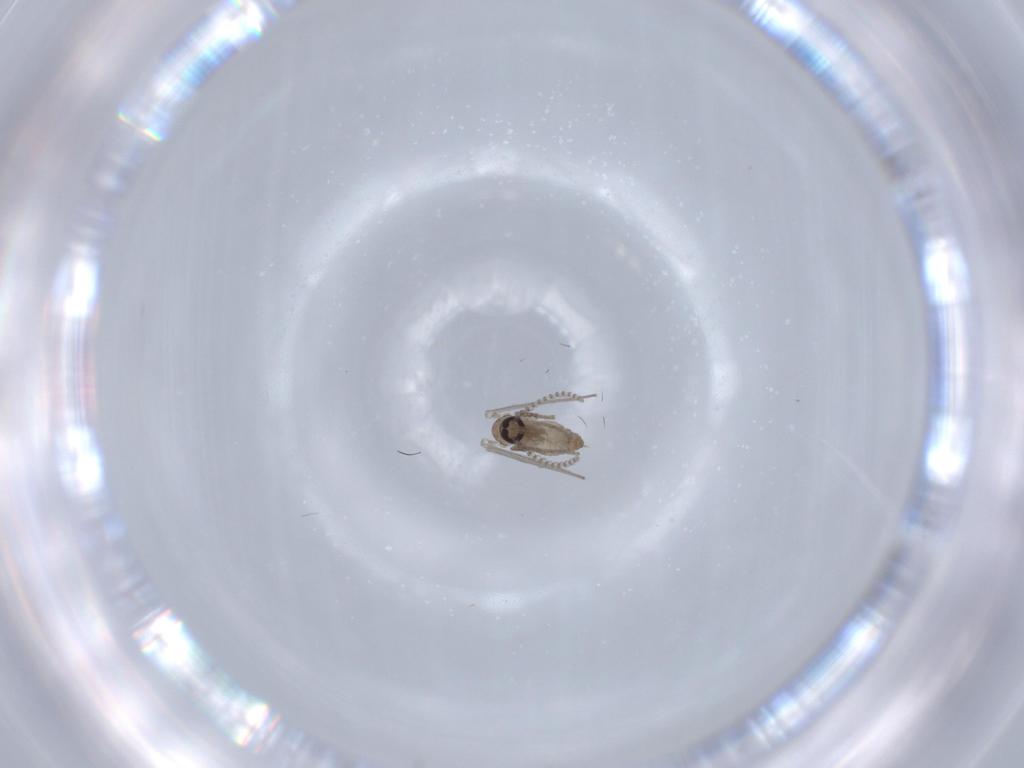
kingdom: Animalia
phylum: Arthropoda
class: Insecta
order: Diptera
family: Psychodidae
